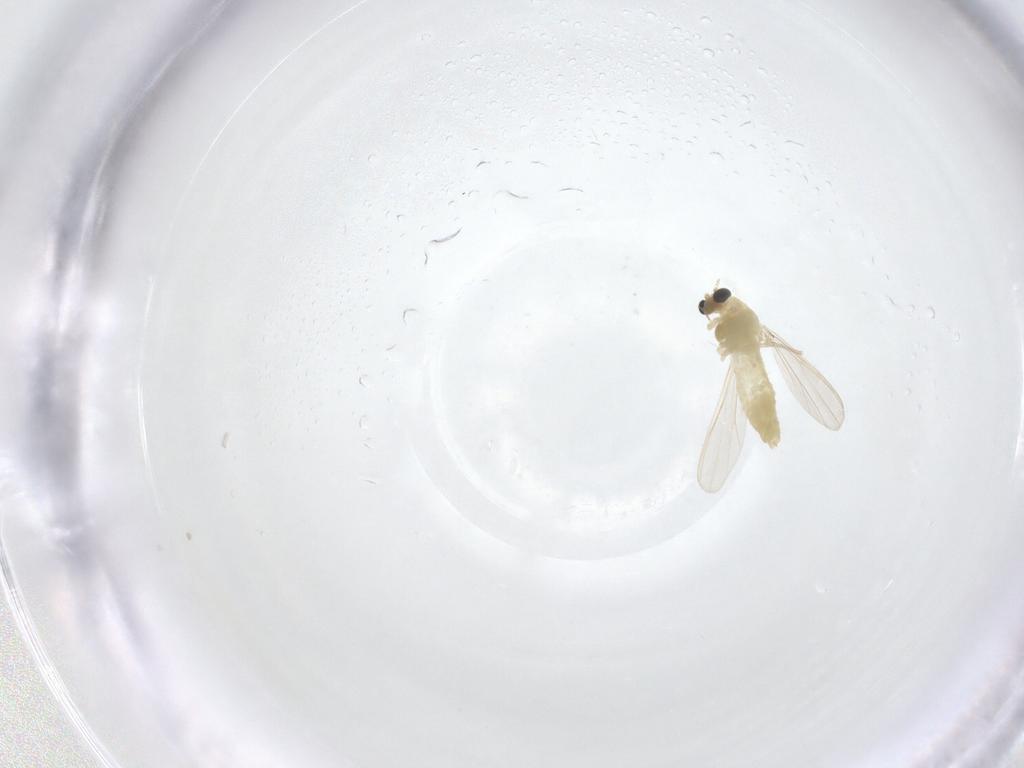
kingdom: Animalia
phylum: Arthropoda
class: Insecta
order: Diptera
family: Chironomidae
